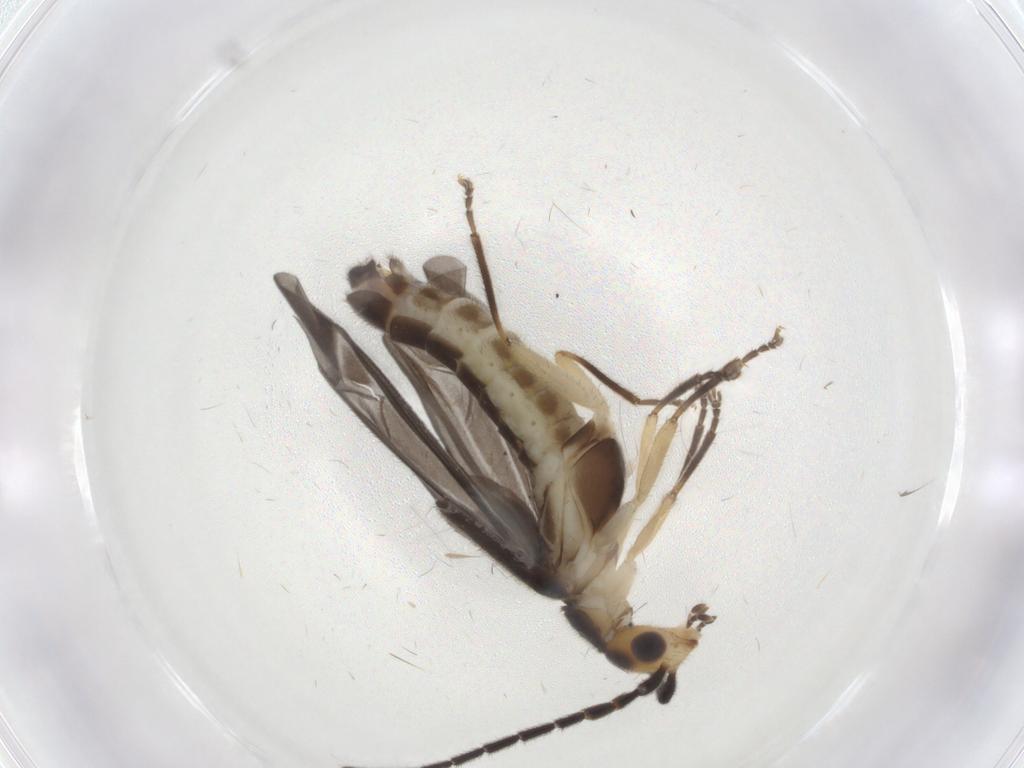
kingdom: Animalia
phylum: Arthropoda
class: Insecta
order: Coleoptera
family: Cantharidae
